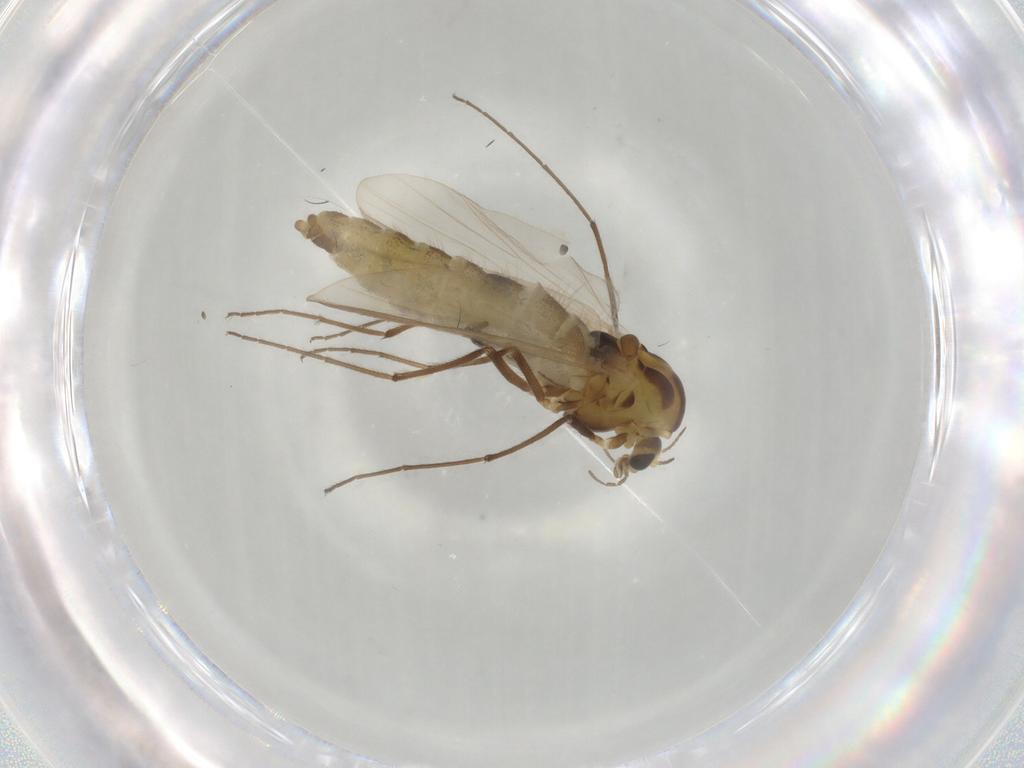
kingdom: Animalia
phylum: Arthropoda
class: Insecta
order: Diptera
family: Chironomidae
